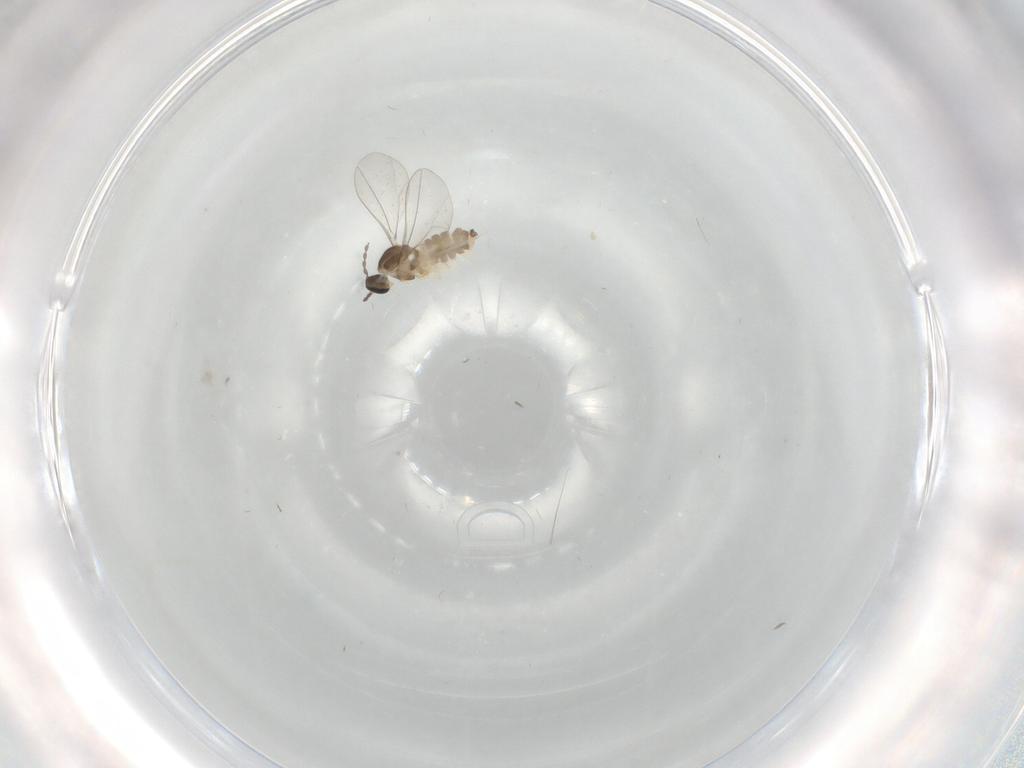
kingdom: Animalia
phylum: Arthropoda
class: Insecta
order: Diptera
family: Cecidomyiidae
